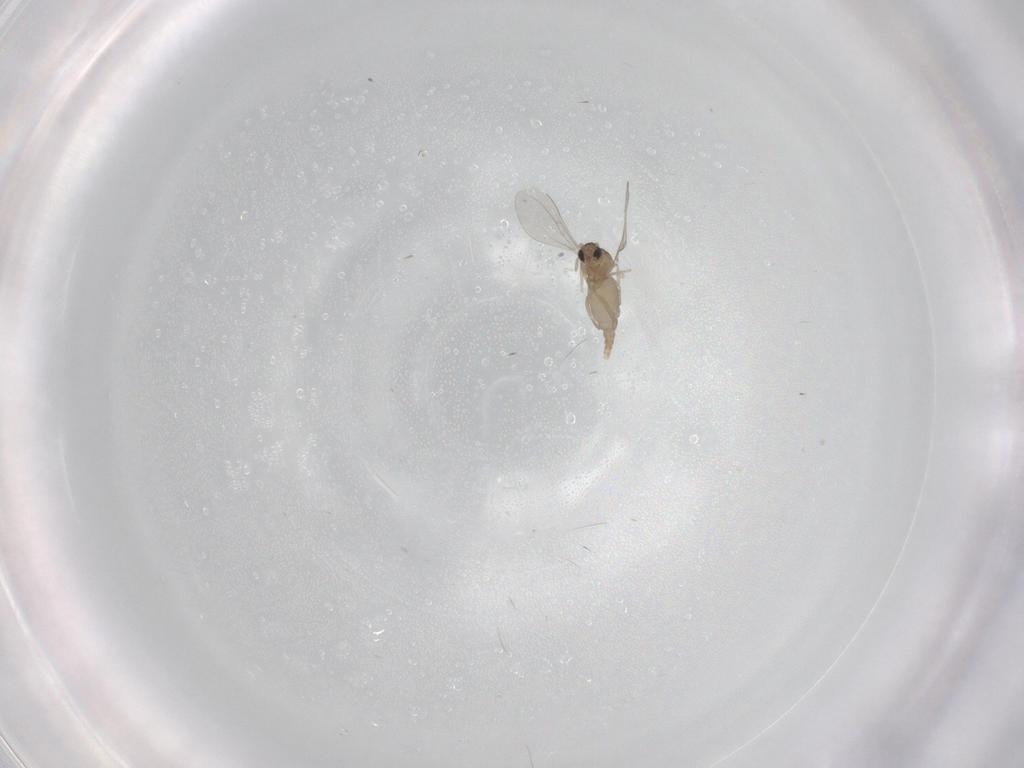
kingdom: Animalia
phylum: Arthropoda
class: Insecta
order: Diptera
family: Cecidomyiidae
